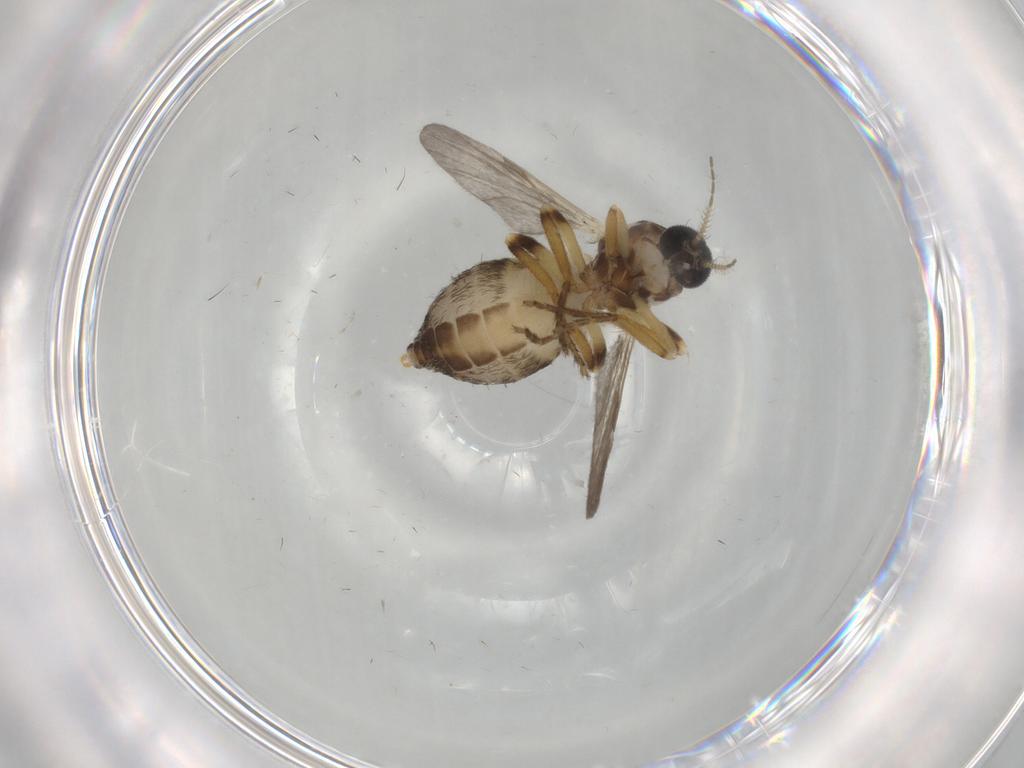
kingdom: Animalia
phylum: Arthropoda
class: Insecta
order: Diptera
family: Ceratopogonidae
